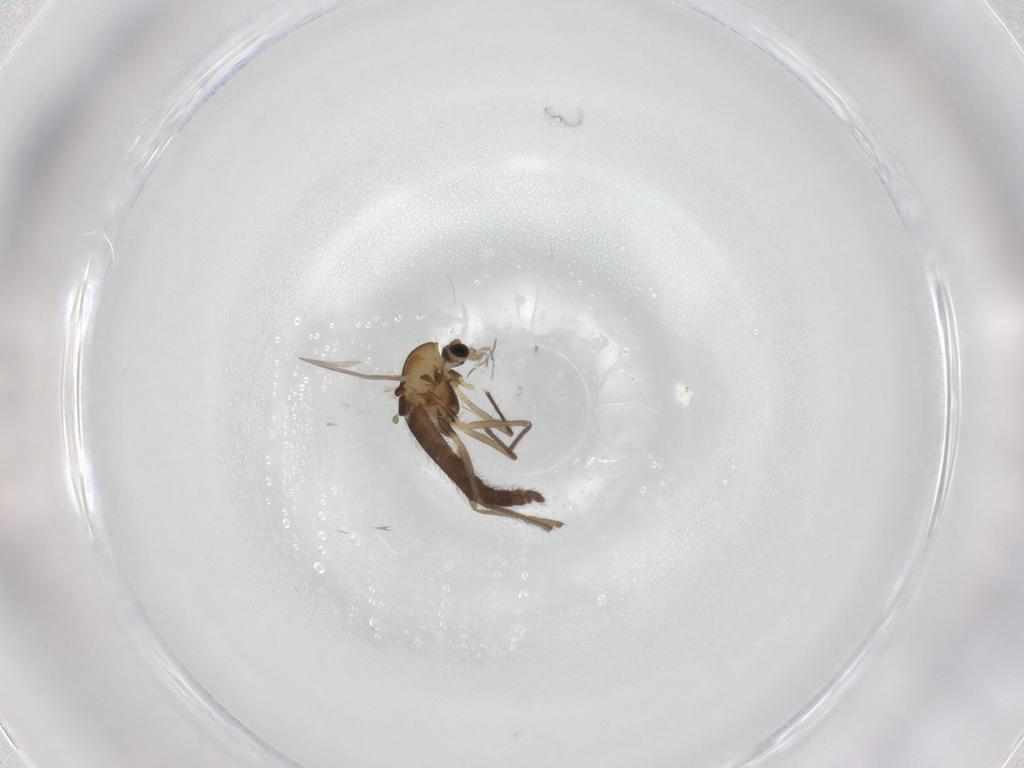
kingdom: Animalia
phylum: Arthropoda
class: Insecta
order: Diptera
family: Chironomidae
